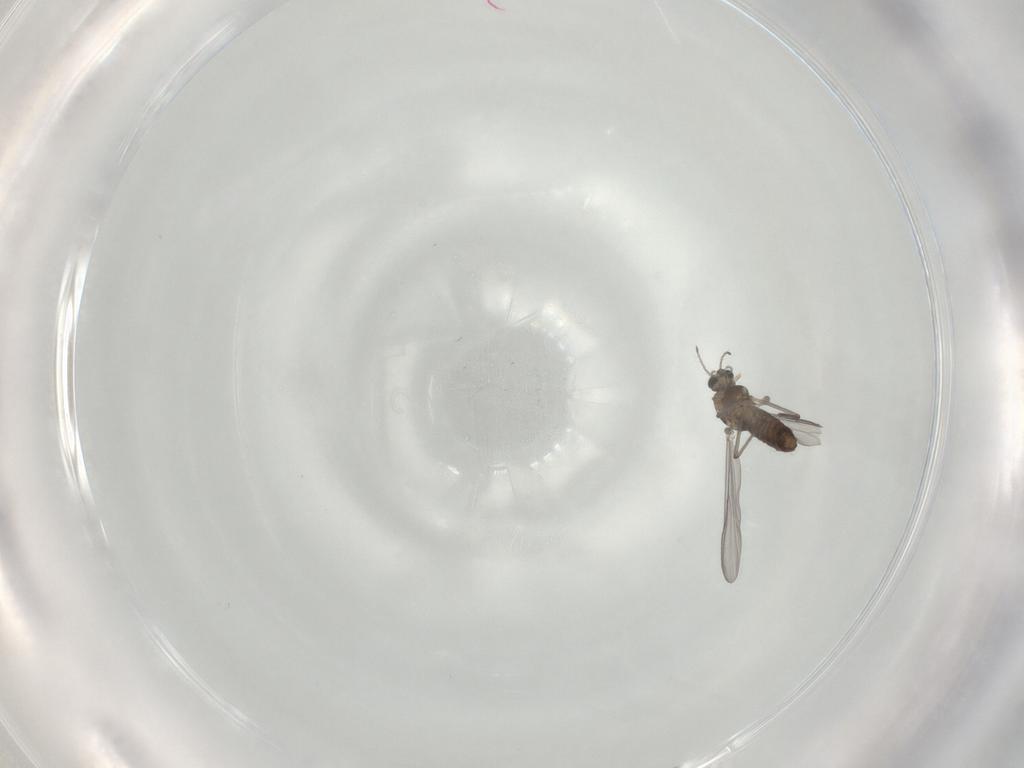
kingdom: Animalia
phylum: Arthropoda
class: Insecta
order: Diptera
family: Chironomidae
